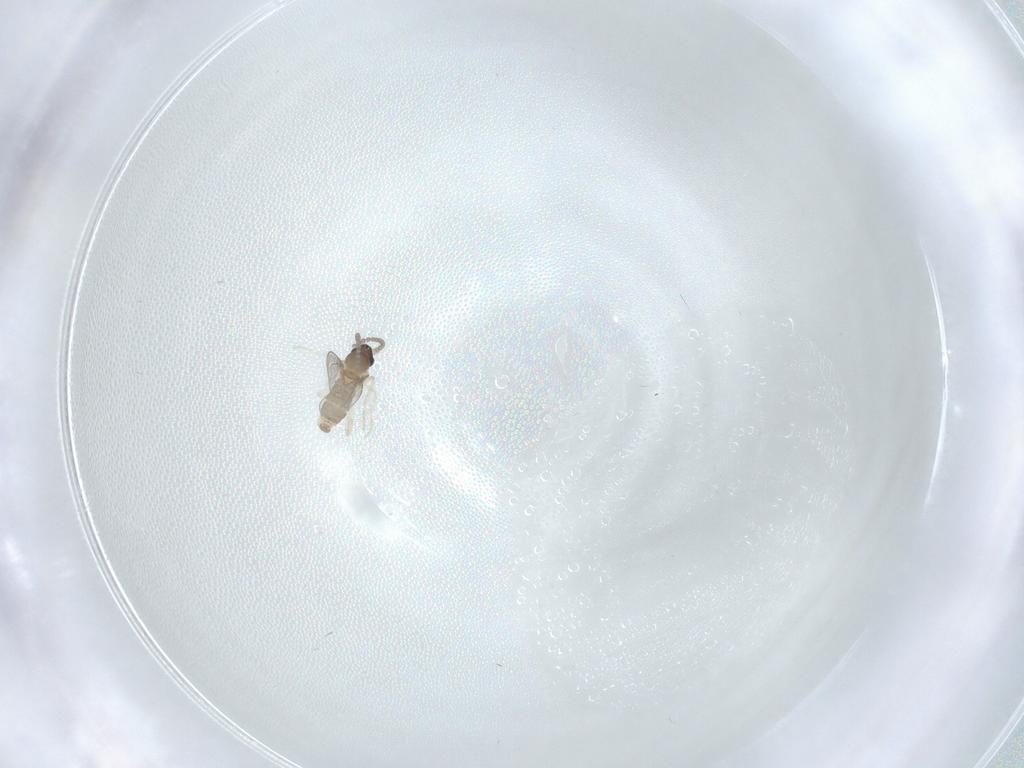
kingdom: Animalia
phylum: Arthropoda
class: Insecta
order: Diptera
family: Cecidomyiidae
